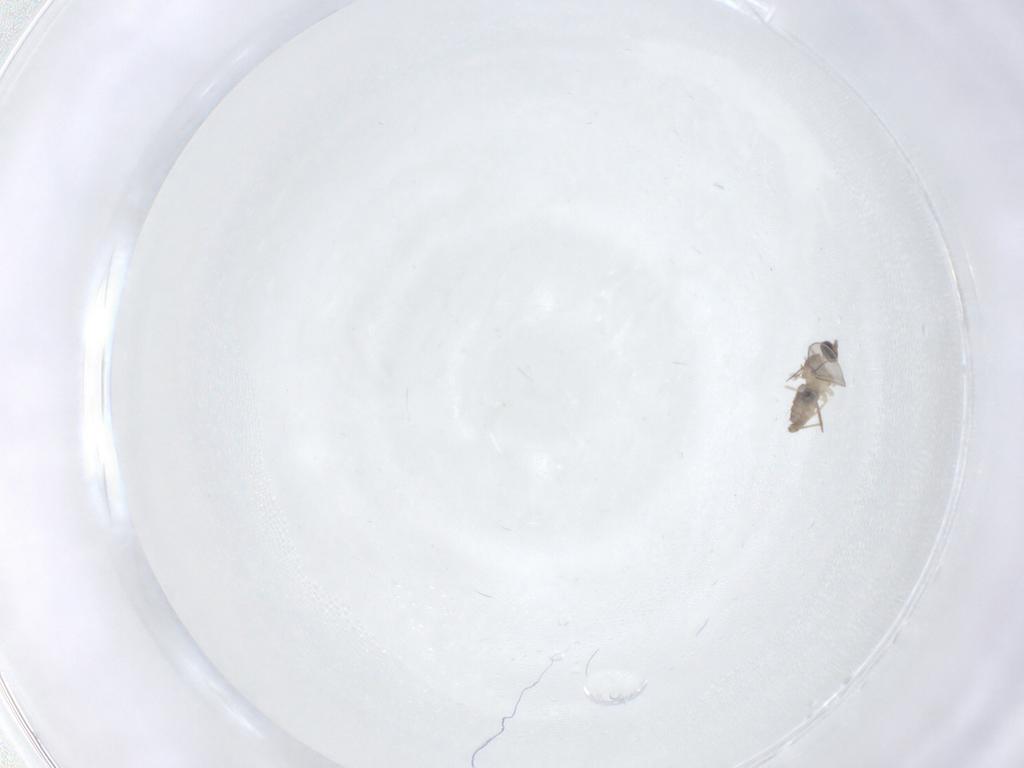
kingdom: Animalia
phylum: Arthropoda
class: Insecta
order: Diptera
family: Cecidomyiidae
